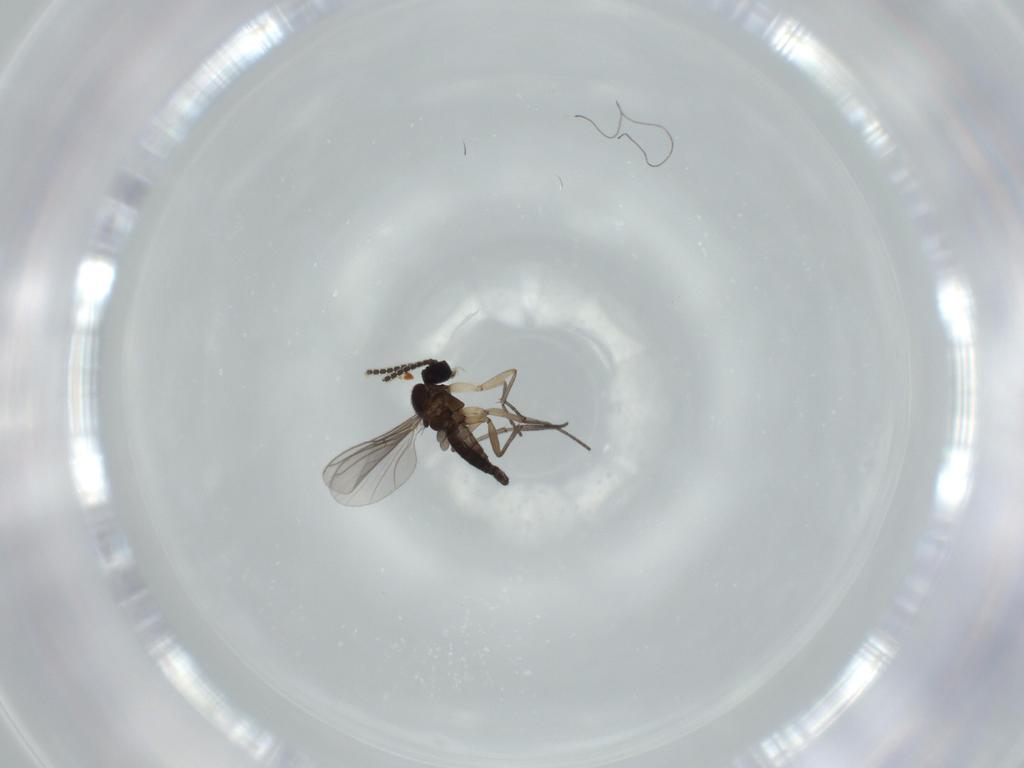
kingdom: Animalia
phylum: Arthropoda
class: Insecta
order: Diptera
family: Sciaridae
